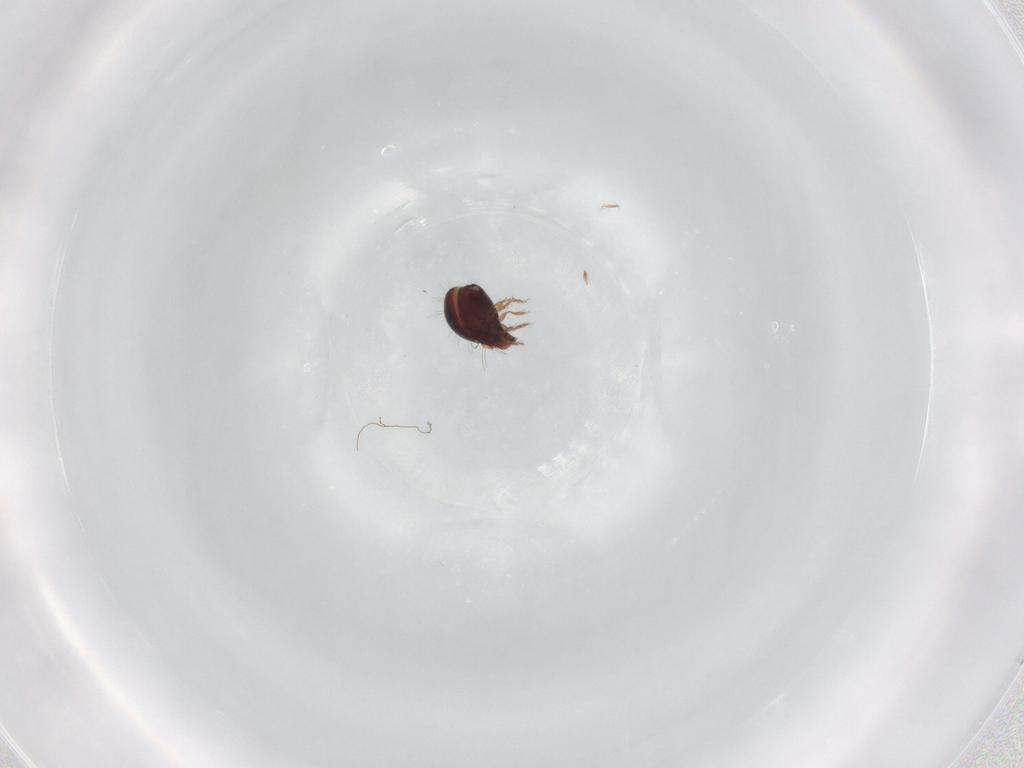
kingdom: Animalia
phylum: Arthropoda
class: Arachnida
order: Sarcoptiformes
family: Humerobatidae
